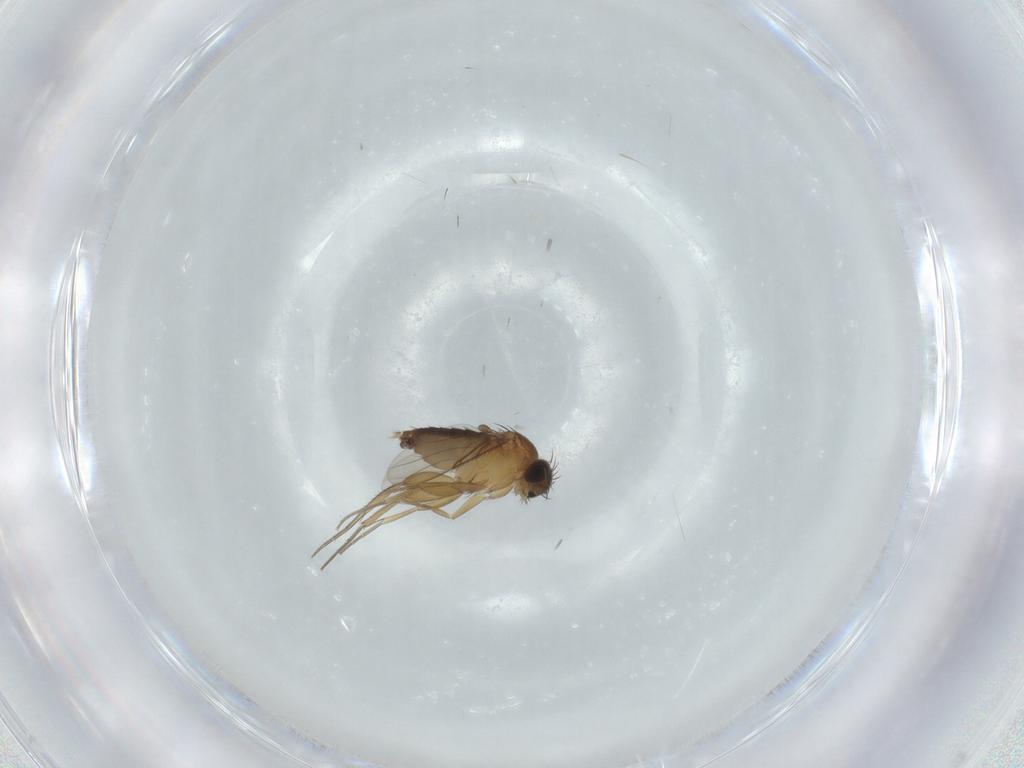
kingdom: Animalia
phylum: Arthropoda
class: Insecta
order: Diptera
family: Phoridae
